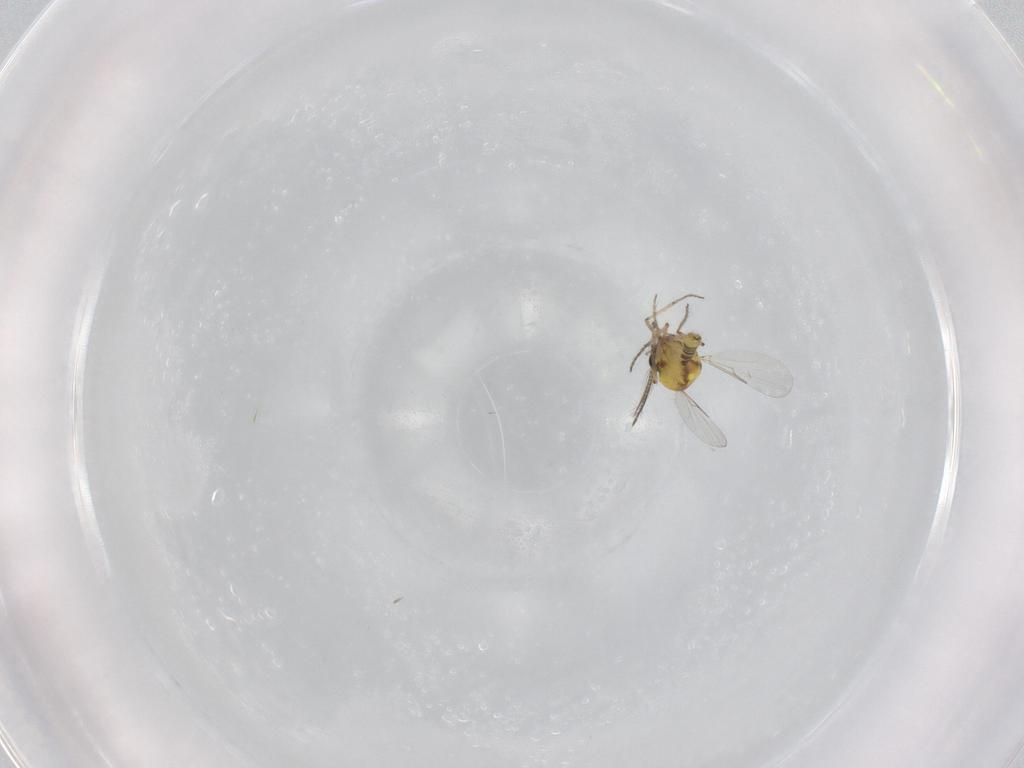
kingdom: Animalia
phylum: Arthropoda
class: Insecta
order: Diptera
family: Ceratopogonidae
